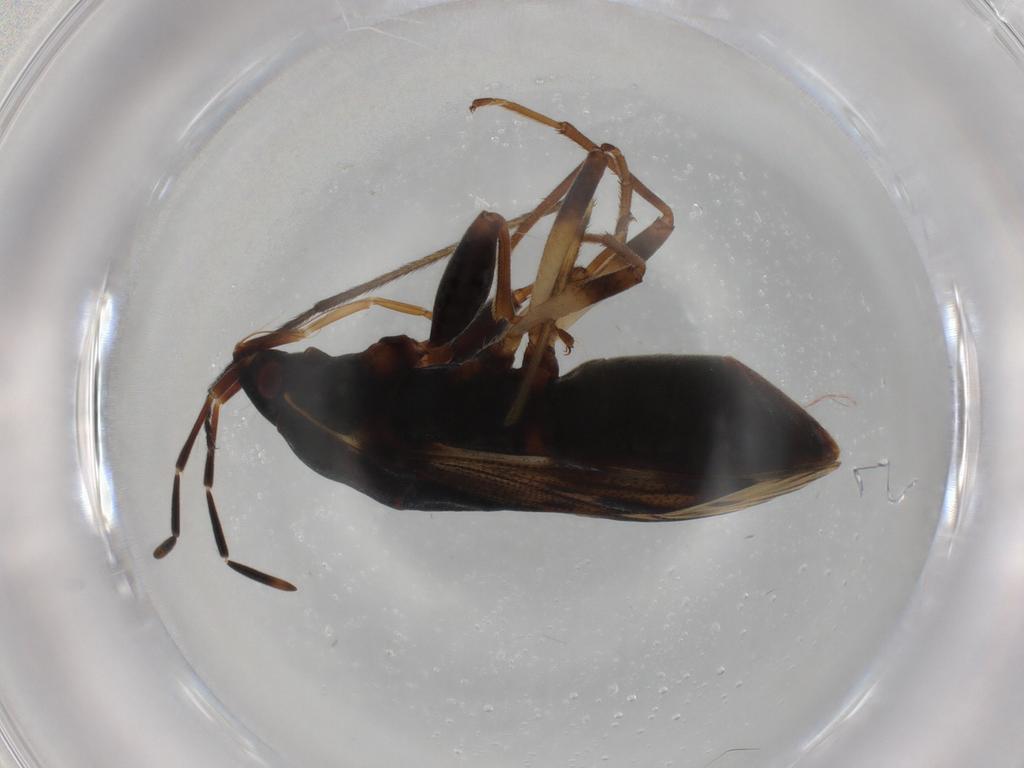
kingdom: Animalia
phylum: Arthropoda
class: Insecta
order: Hemiptera
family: Rhyparochromidae
